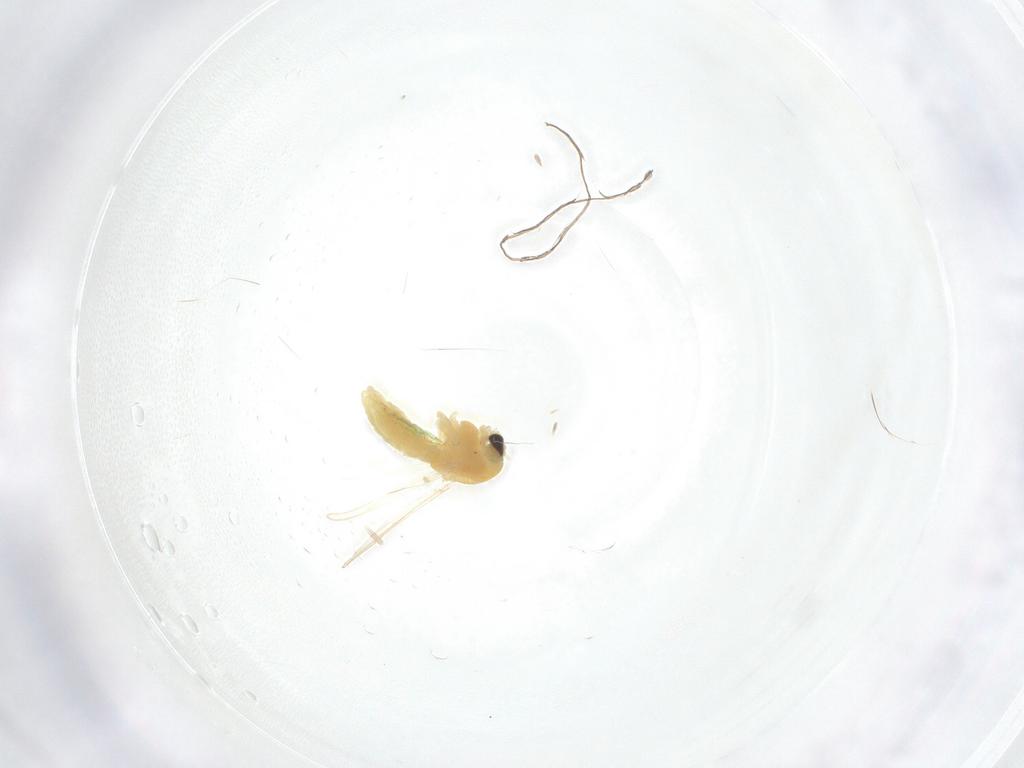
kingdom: Animalia
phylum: Arthropoda
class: Insecta
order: Diptera
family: Chironomidae
